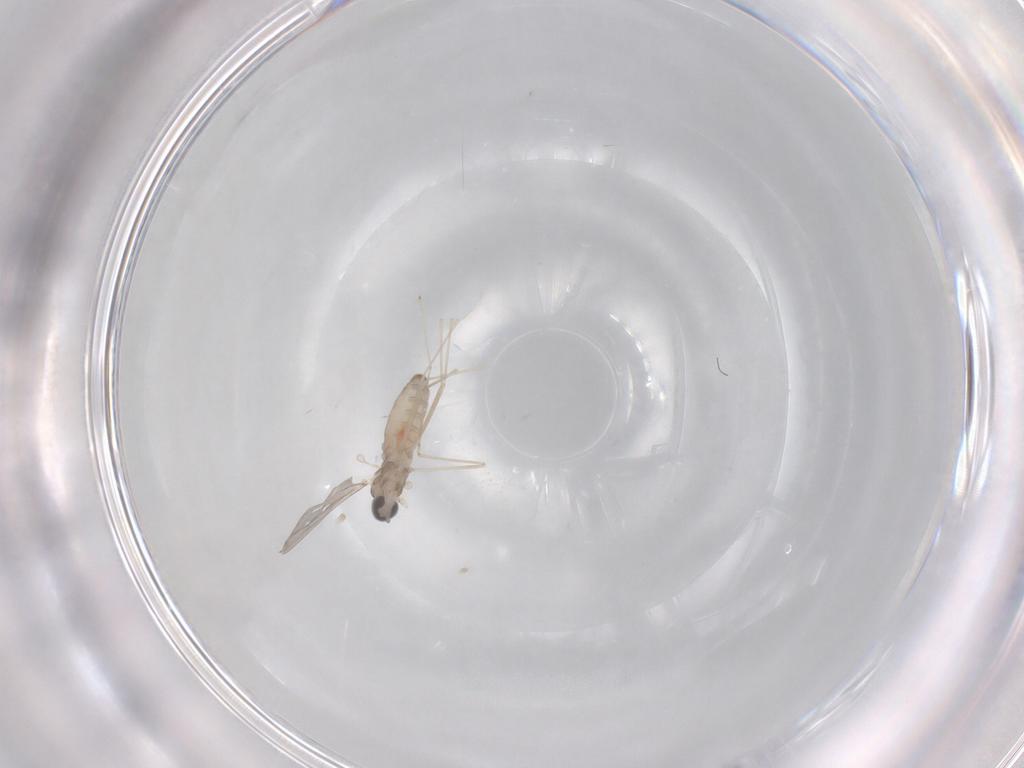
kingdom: Animalia
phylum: Arthropoda
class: Insecta
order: Diptera
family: Cecidomyiidae
